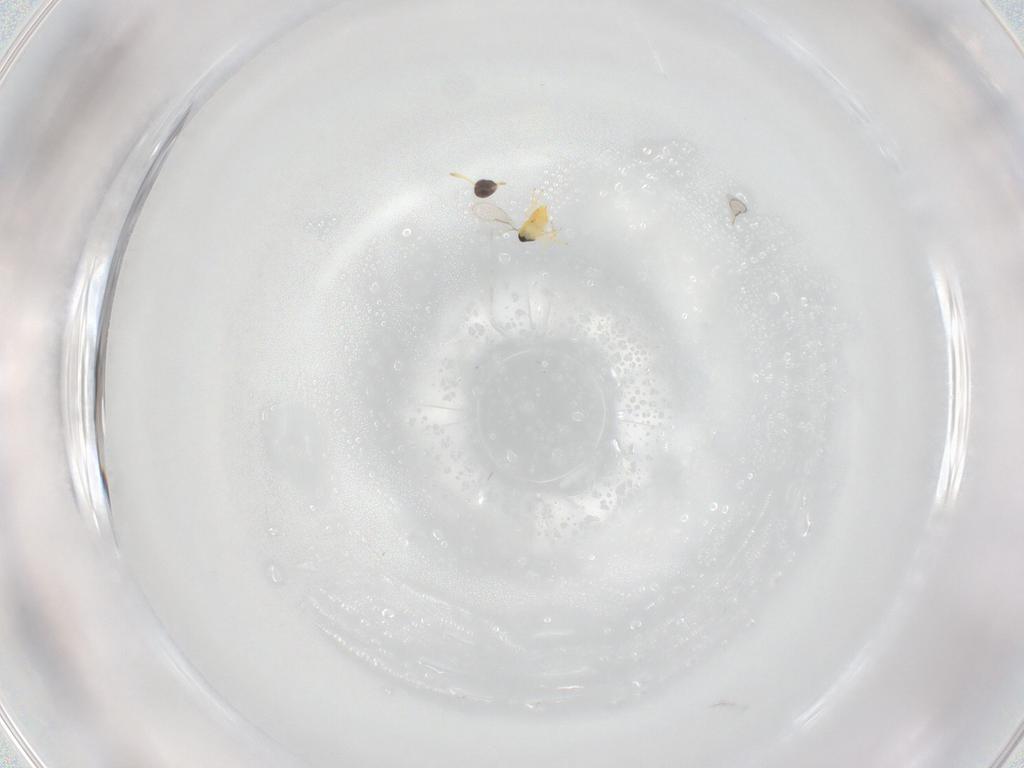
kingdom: Animalia
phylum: Arthropoda
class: Insecta
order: Hymenoptera
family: Aphelinidae
